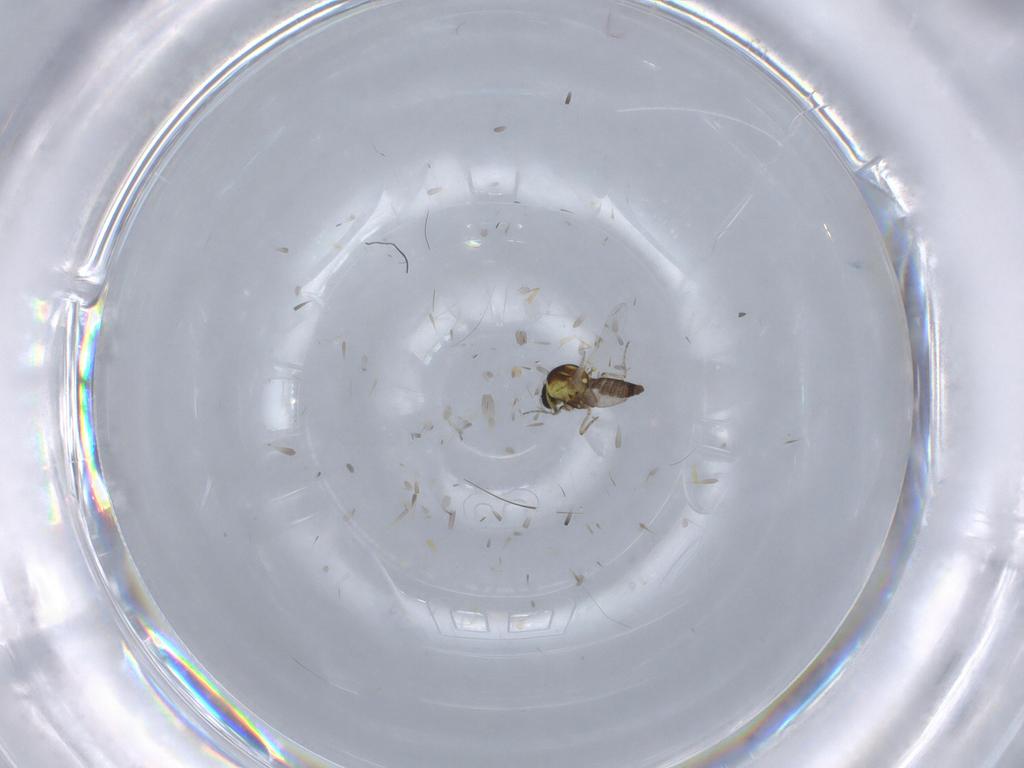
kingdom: Animalia
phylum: Arthropoda
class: Insecta
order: Diptera
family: Ceratopogonidae
